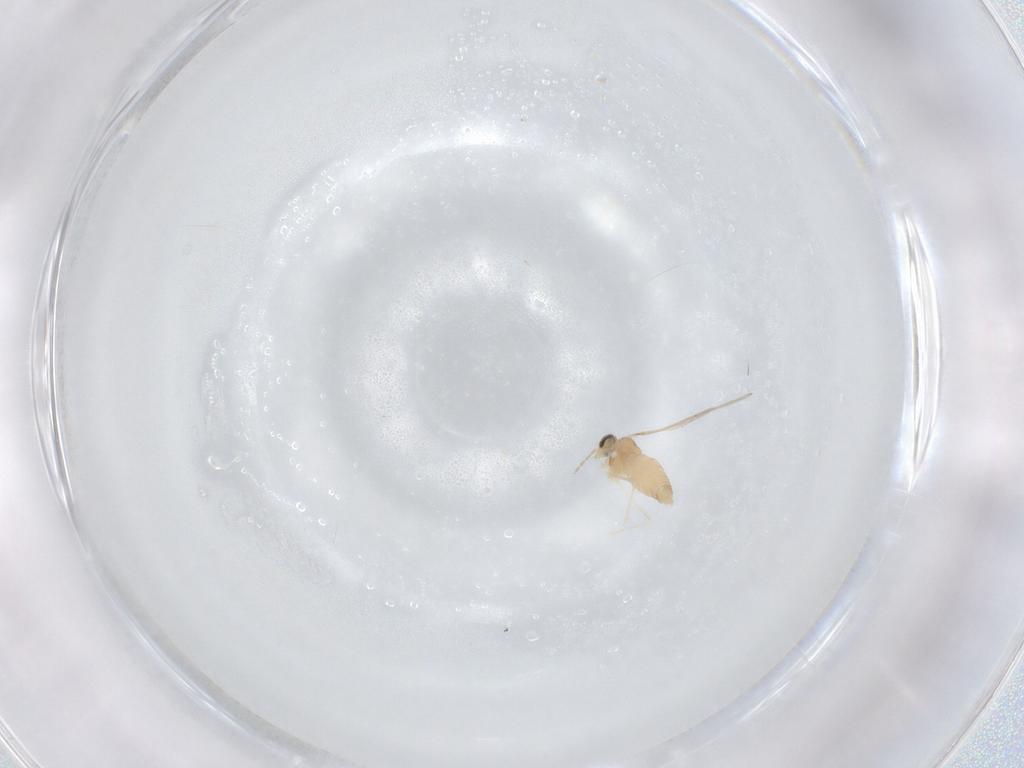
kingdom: Animalia
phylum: Arthropoda
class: Insecta
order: Diptera
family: Cecidomyiidae
